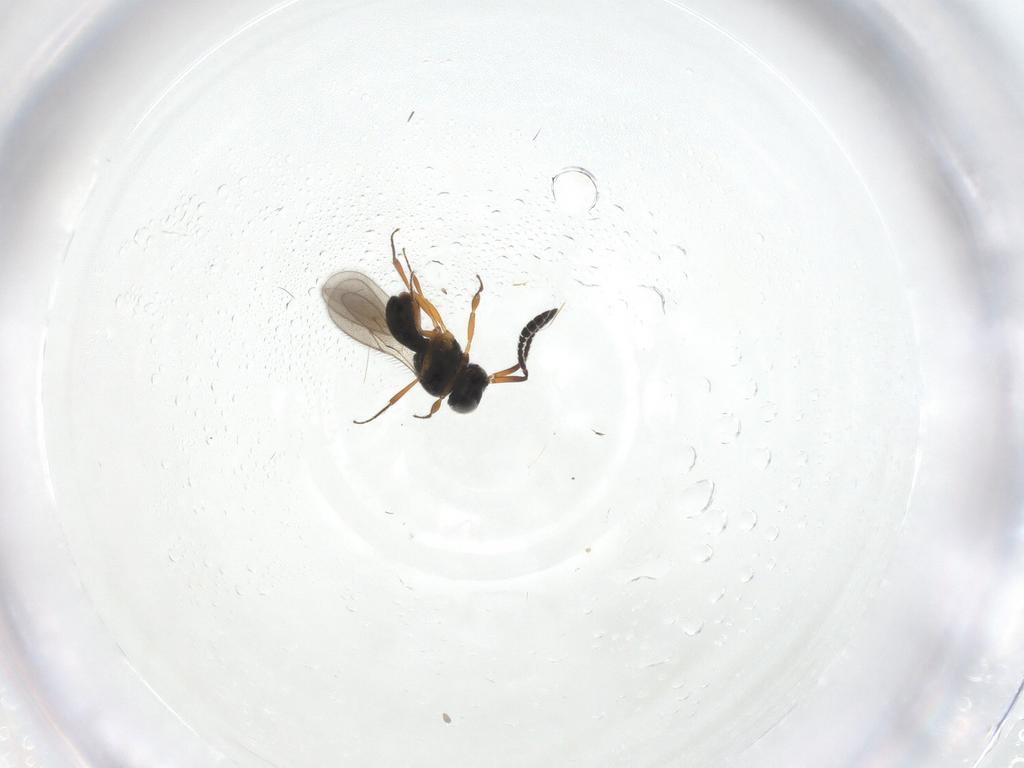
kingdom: Animalia
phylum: Arthropoda
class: Insecta
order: Hymenoptera
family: Scelionidae
